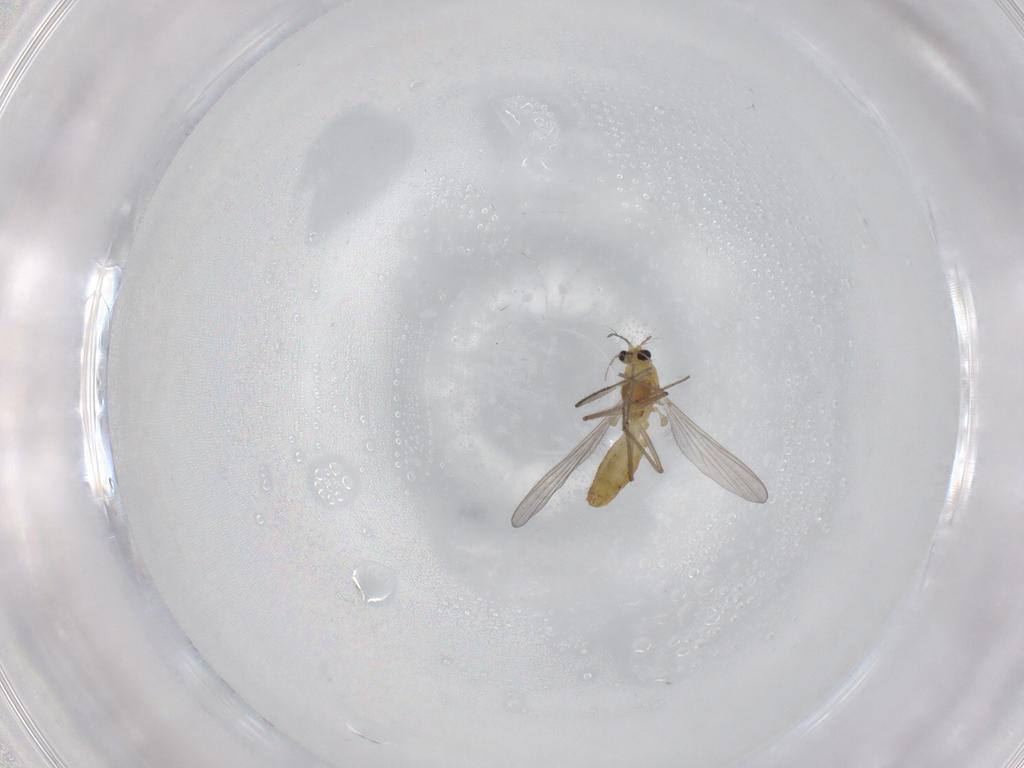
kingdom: Animalia
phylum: Arthropoda
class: Insecta
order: Diptera
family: Chironomidae
